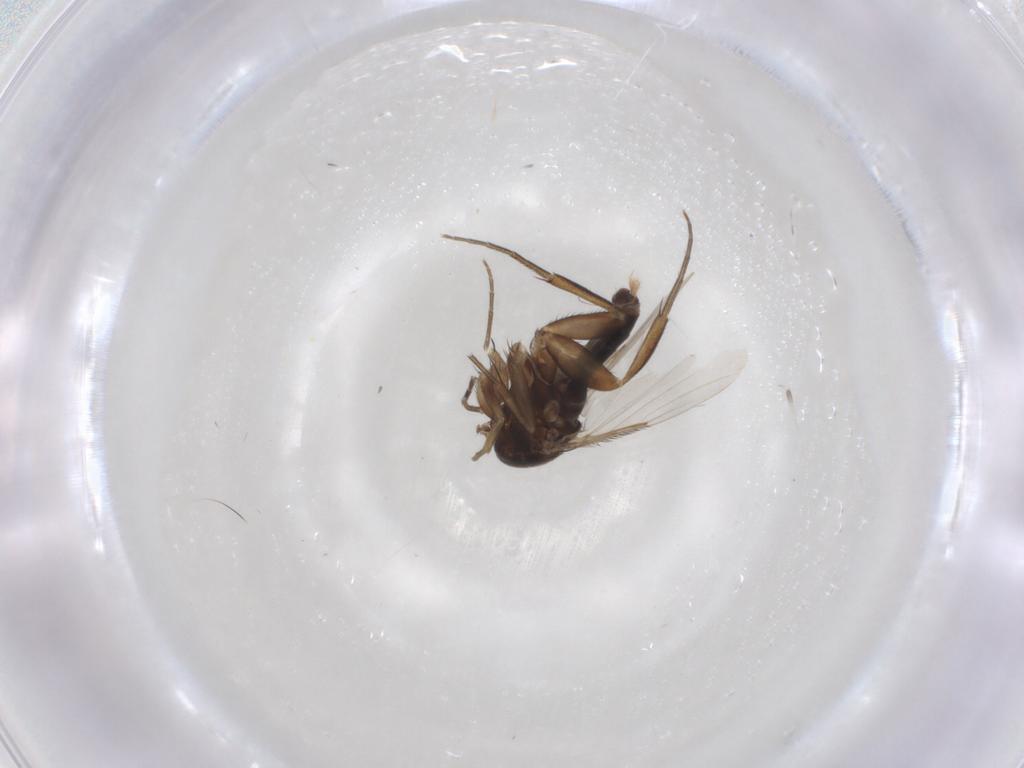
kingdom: Animalia
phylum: Arthropoda
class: Insecta
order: Diptera
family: Phoridae
